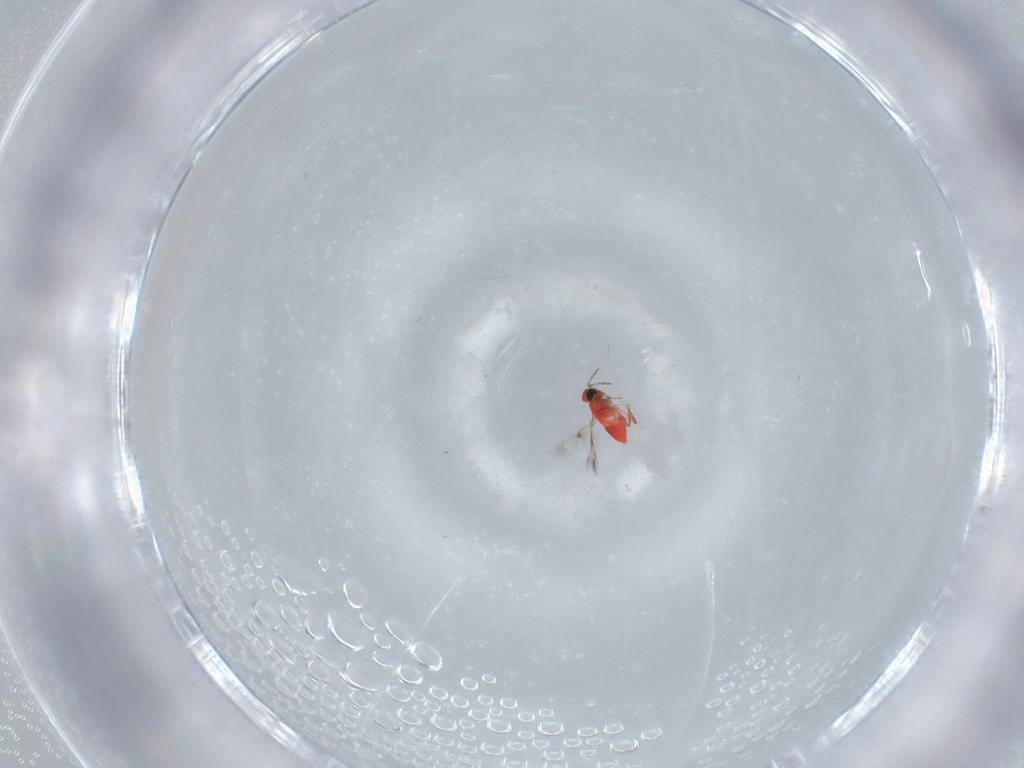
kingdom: Animalia
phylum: Arthropoda
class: Insecta
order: Hymenoptera
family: Trichogrammatidae
